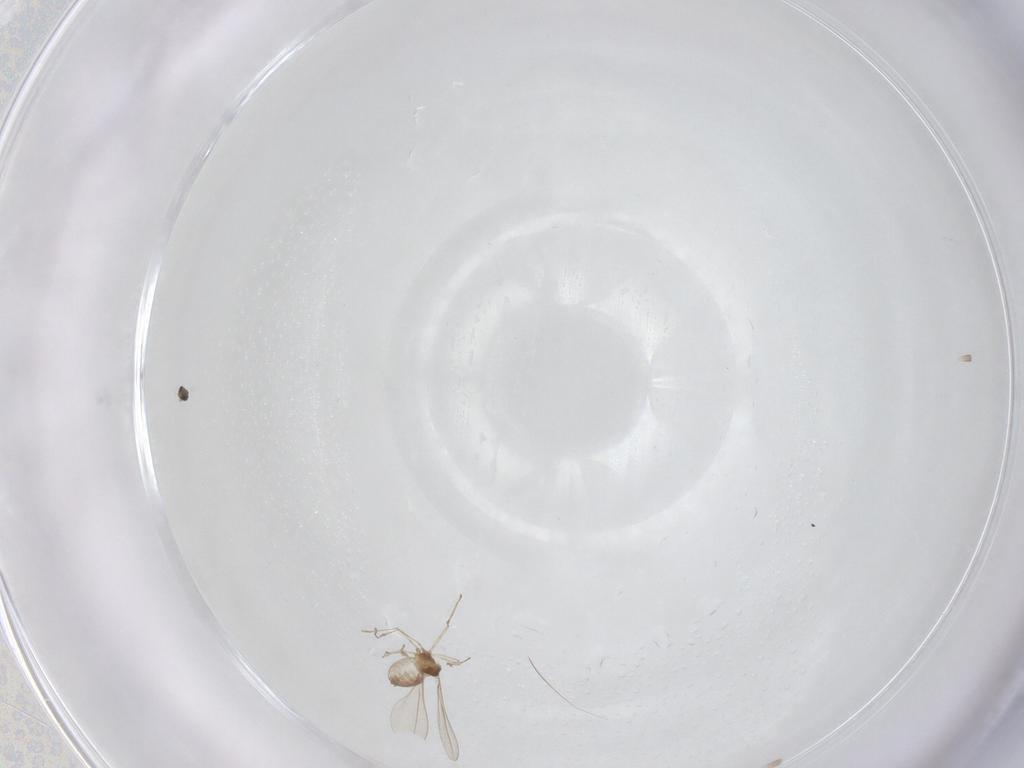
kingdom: Animalia
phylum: Arthropoda
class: Insecta
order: Diptera
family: Cecidomyiidae
